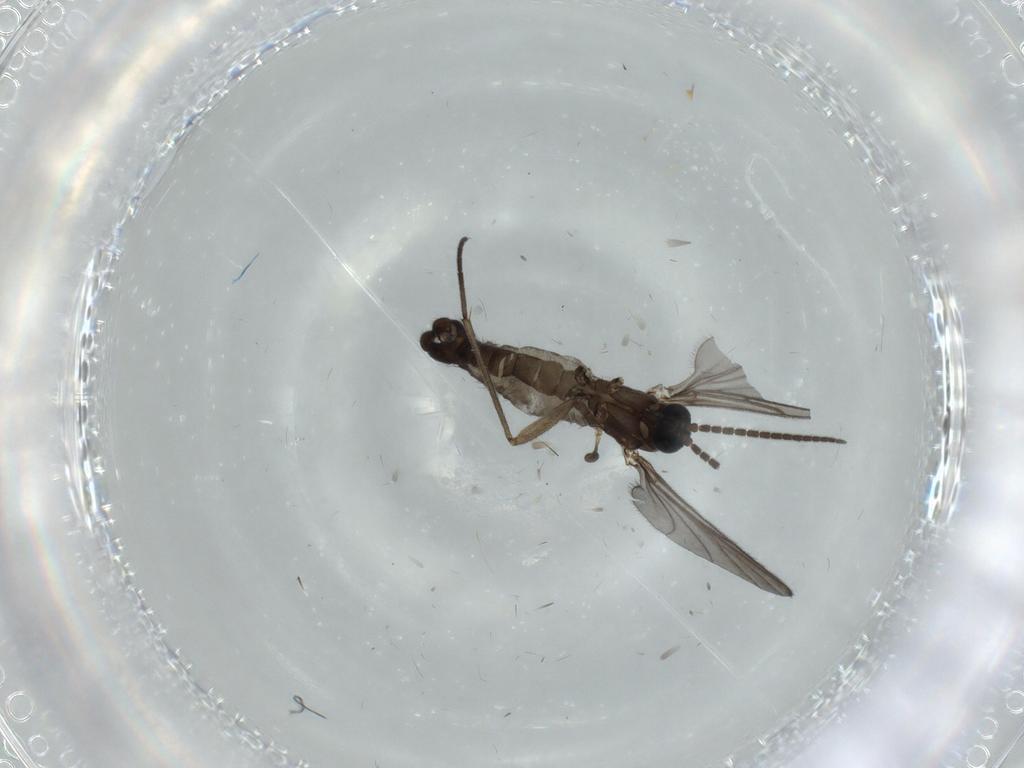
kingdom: Animalia
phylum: Arthropoda
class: Insecta
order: Diptera
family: Sciaridae
